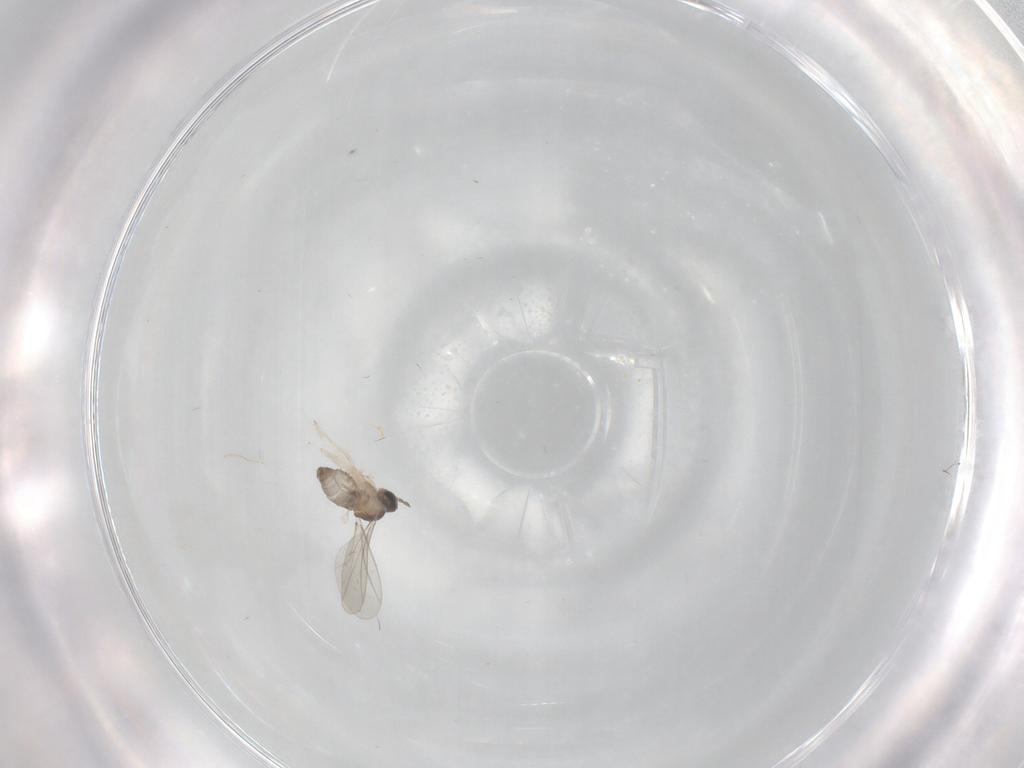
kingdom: Animalia
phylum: Arthropoda
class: Insecta
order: Diptera
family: Cecidomyiidae
